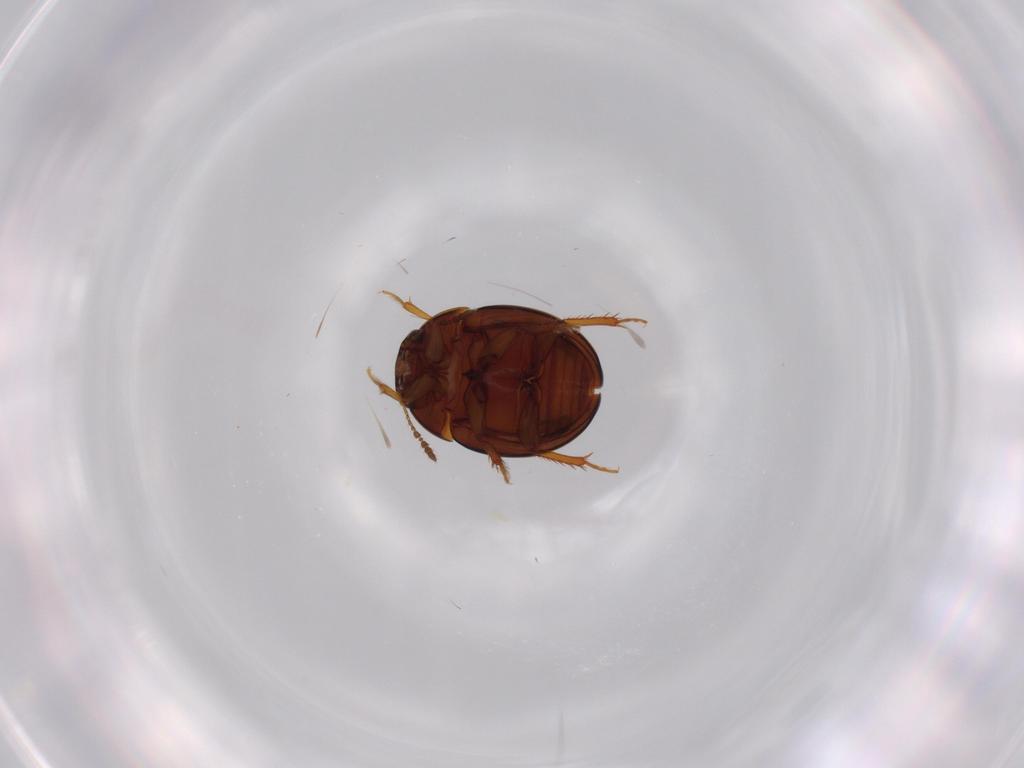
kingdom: Animalia
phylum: Arthropoda
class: Insecta
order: Coleoptera
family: Leiodidae
